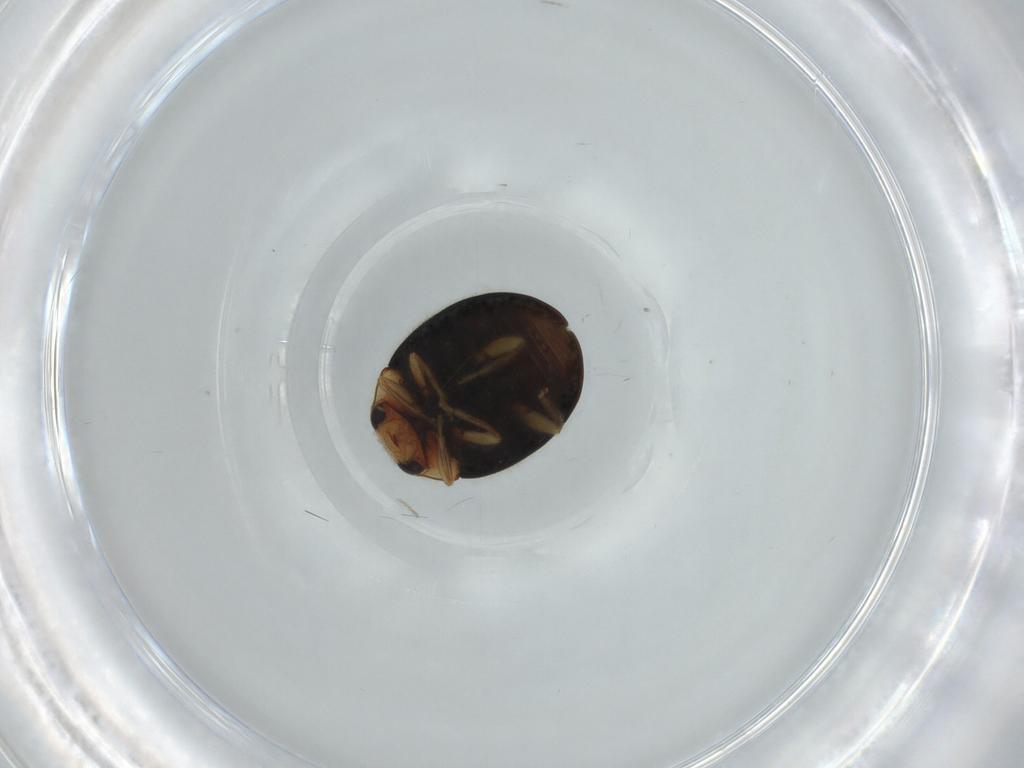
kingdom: Animalia
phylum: Arthropoda
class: Insecta
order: Coleoptera
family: Coccinellidae
